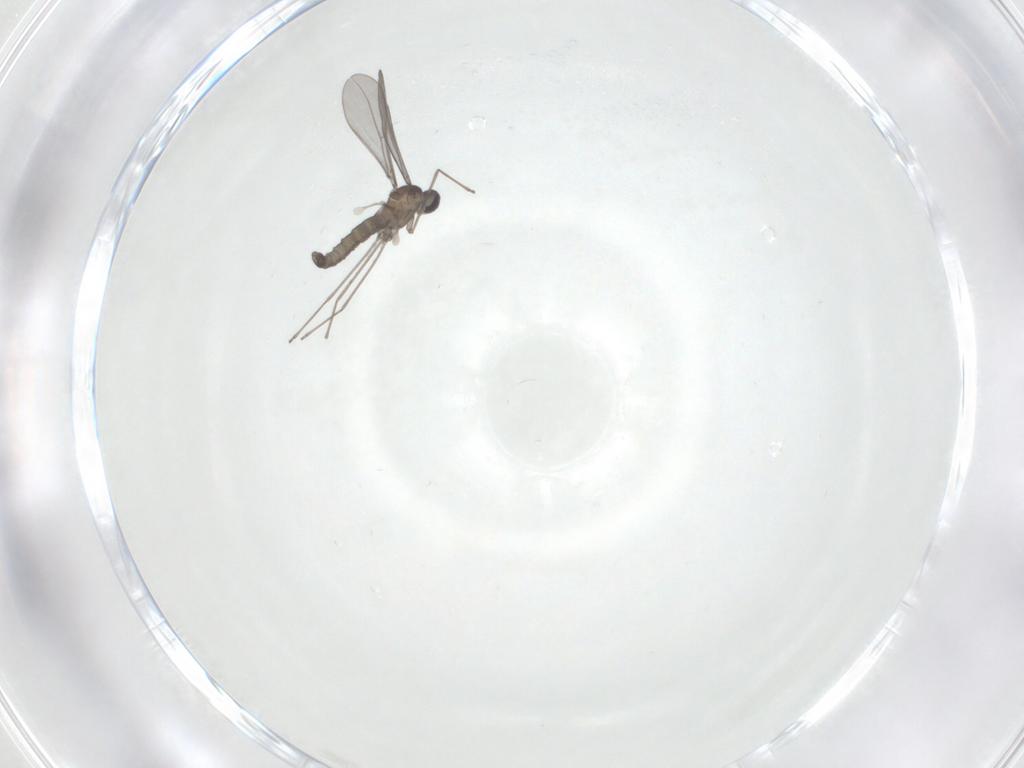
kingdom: Animalia
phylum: Arthropoda
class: Insecta
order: Diptera
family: Cecidomyiidae
